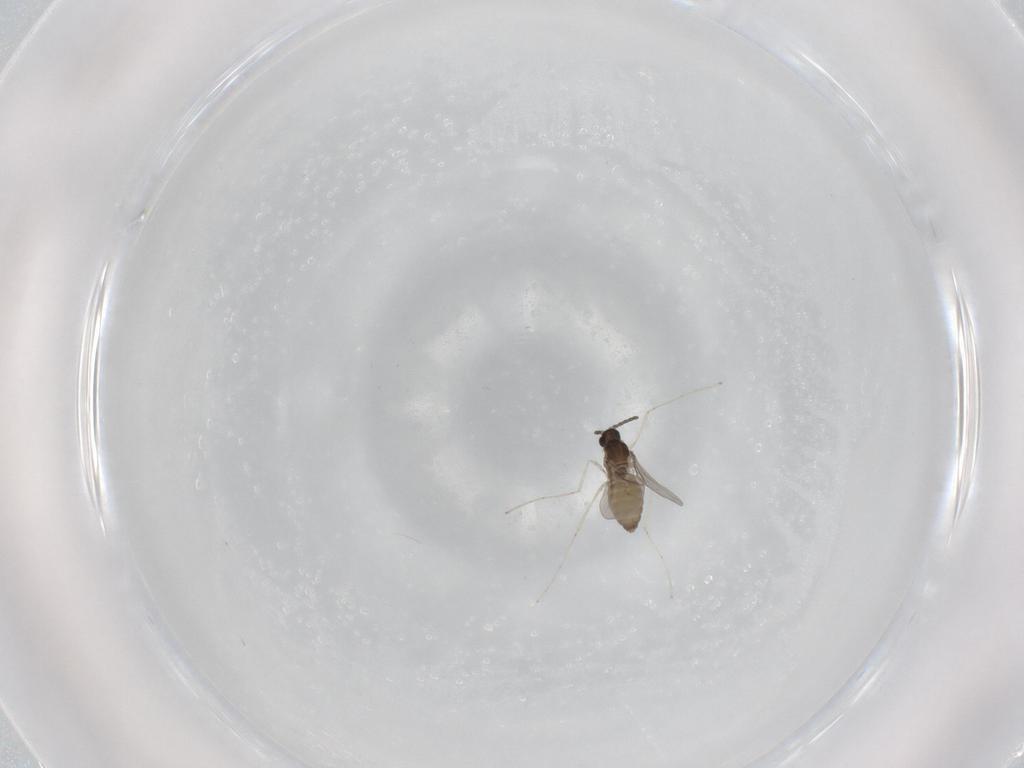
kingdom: Animalia
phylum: Arthropoda
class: Insecta
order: Diptera
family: Cecidomyiidae
